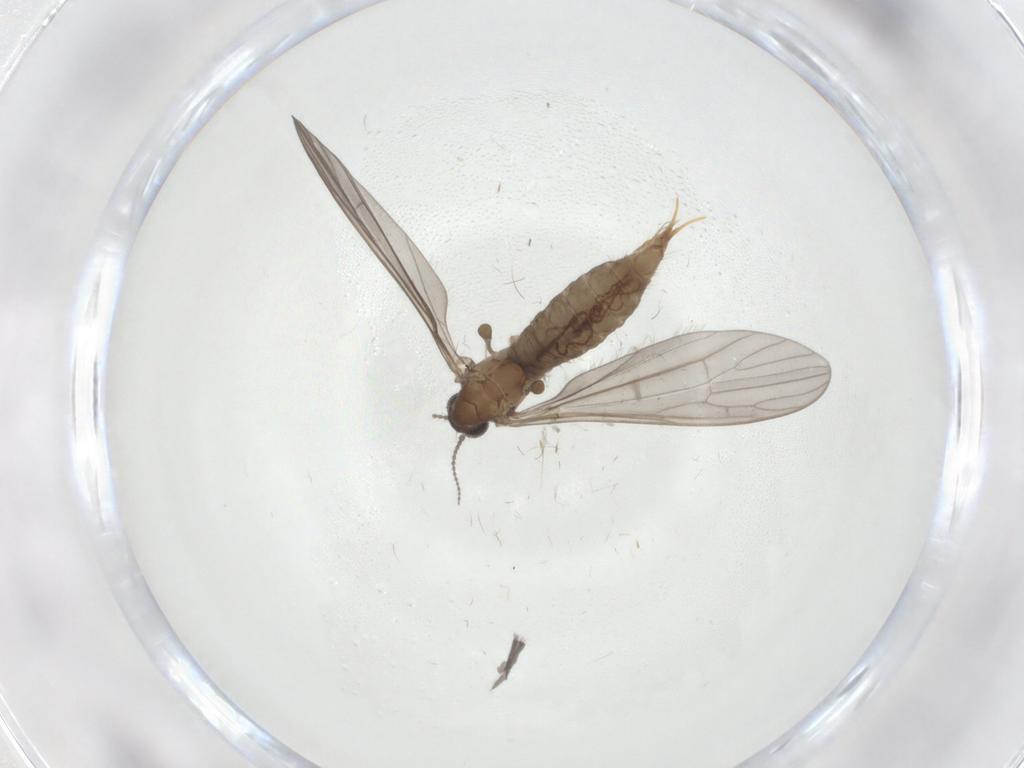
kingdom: Animalia
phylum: Arthropoda
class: Insecta
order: Diptera
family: Limoniidae
